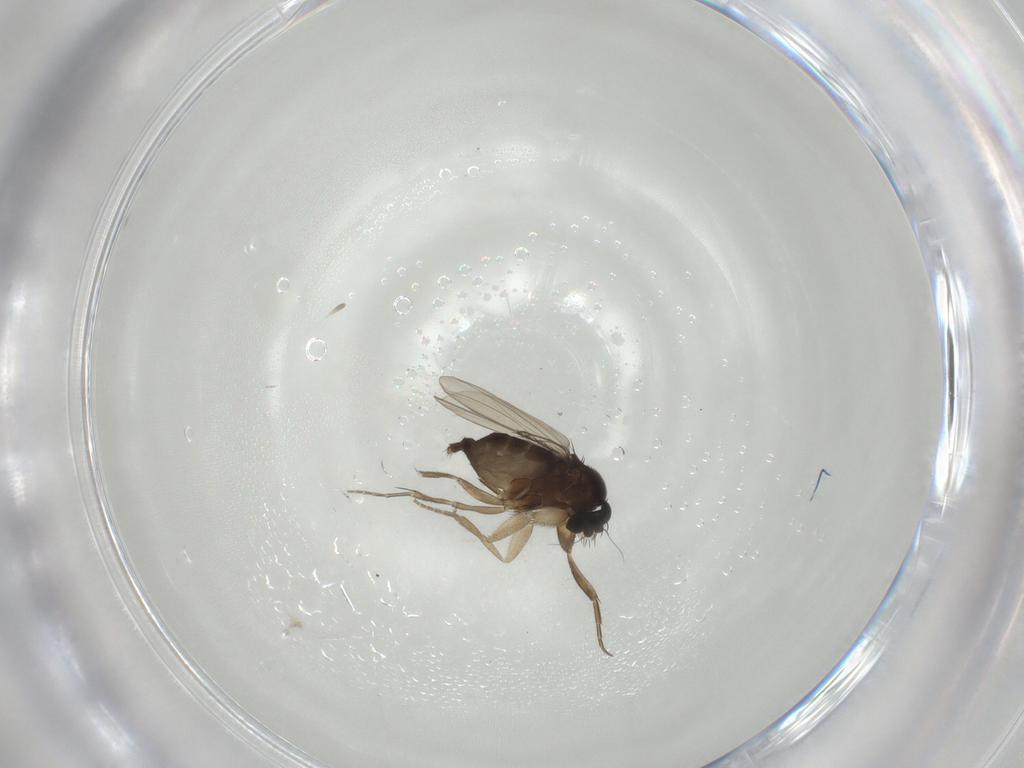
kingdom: Animalia
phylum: Arthropoda
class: Insecta
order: Diptera
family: Phoridae
